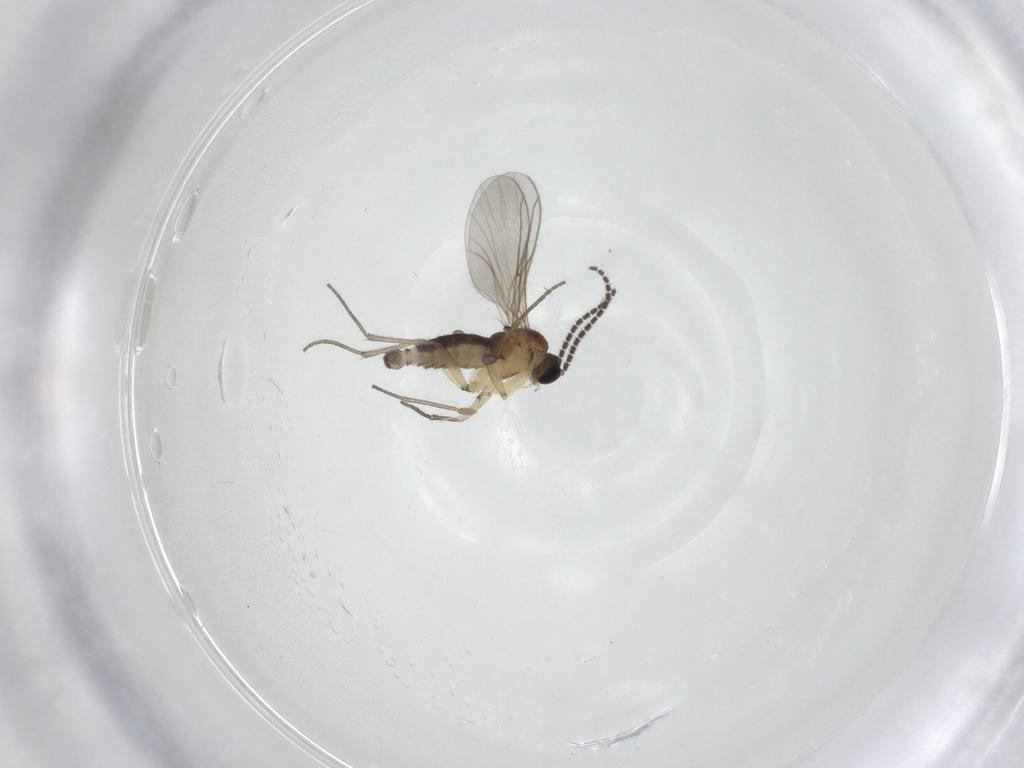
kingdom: Animalia
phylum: Arthropoda
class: Insecta
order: Diptera
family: Sciaridae
